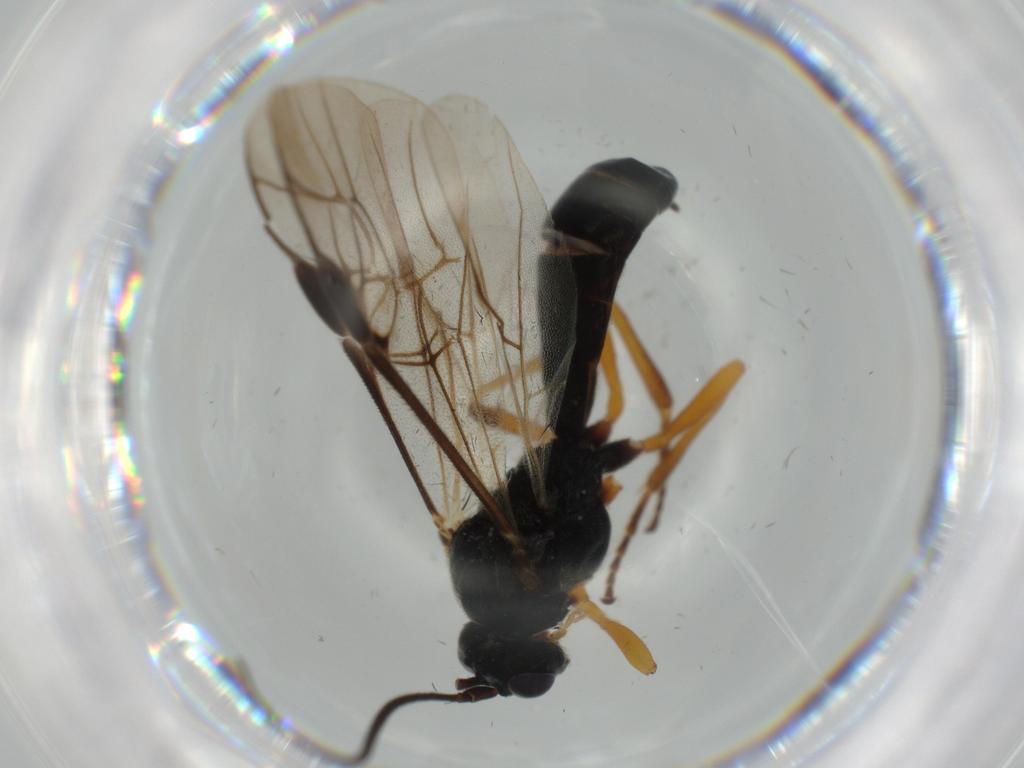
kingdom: Animalia
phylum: Arthropoda
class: Insecta
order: Hymenoptera
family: Braconidae
